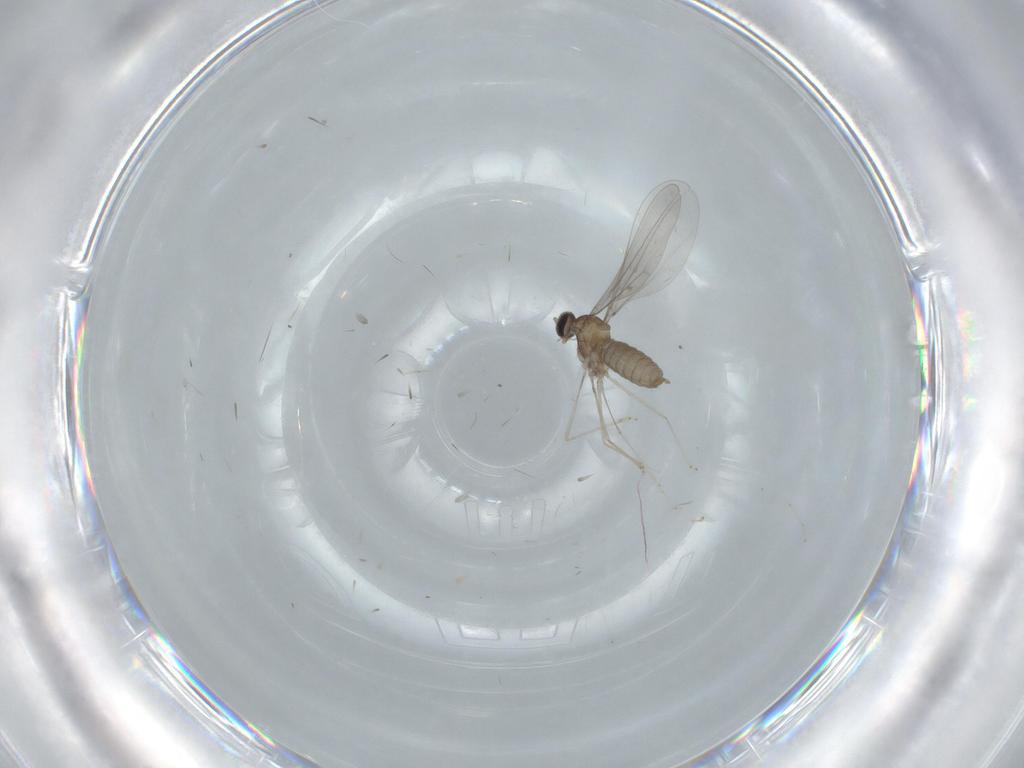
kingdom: Animalia
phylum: Arthropoda
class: Insecta
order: Diptera
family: Cecidomyiidae
